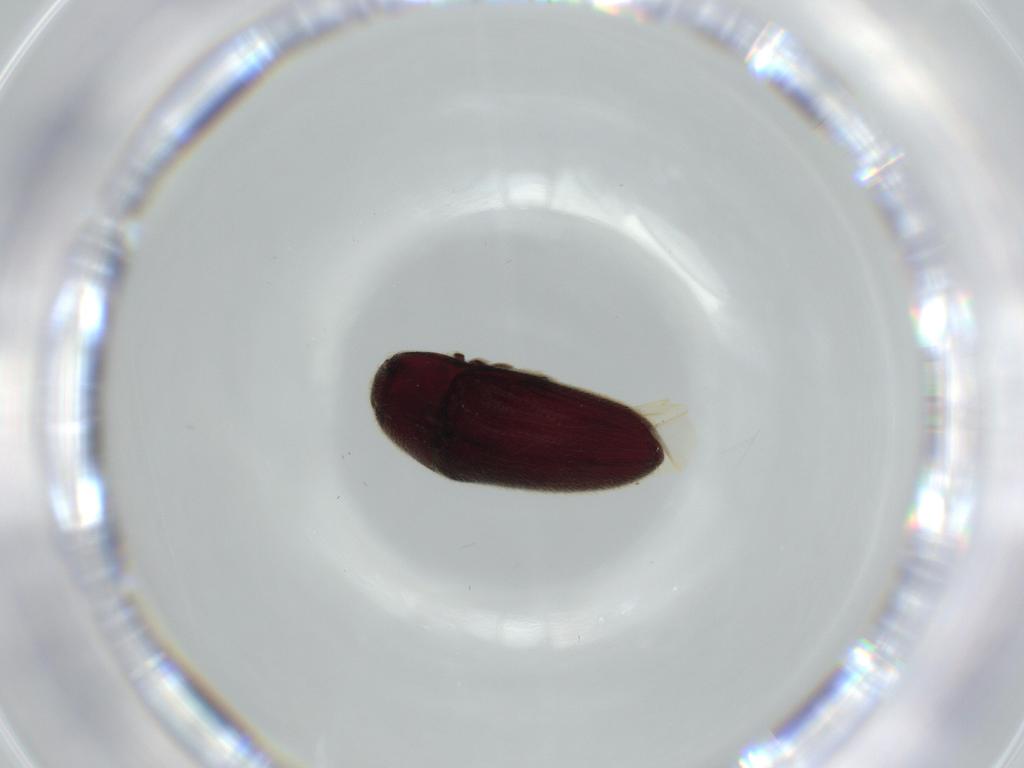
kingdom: Animalia
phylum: Arthropoda
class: Insecta
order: Coleoptera
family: Throscidae
